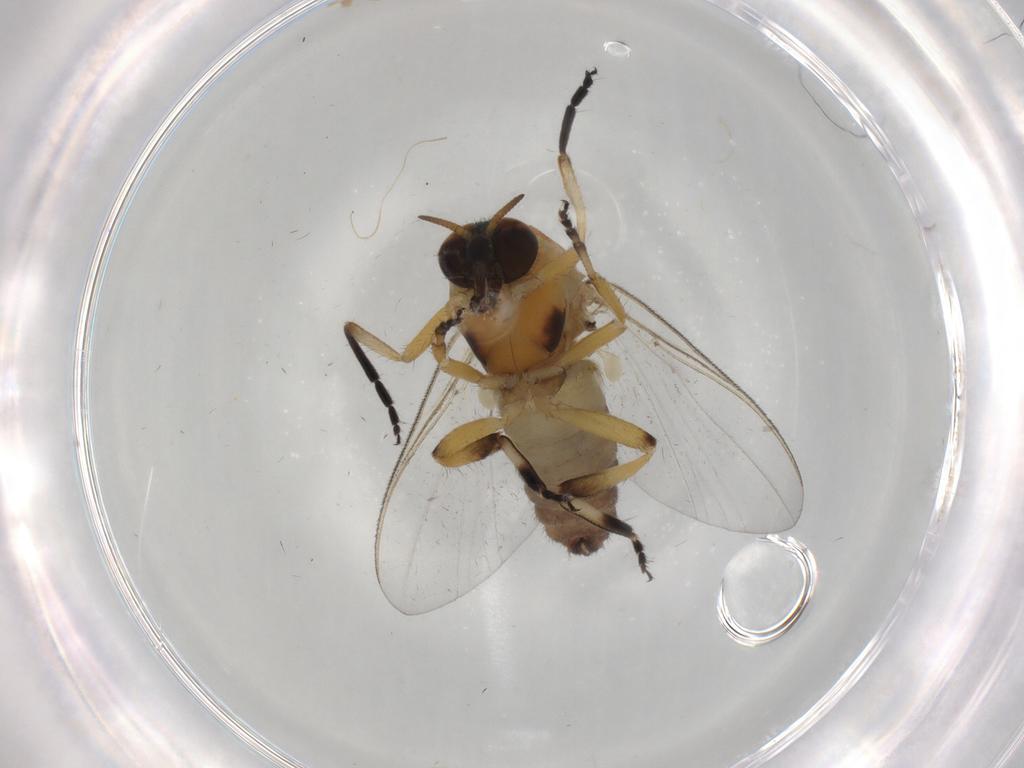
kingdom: Animalia
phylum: Arthropoda
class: Insecta
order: Diptera
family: Simuliidae
